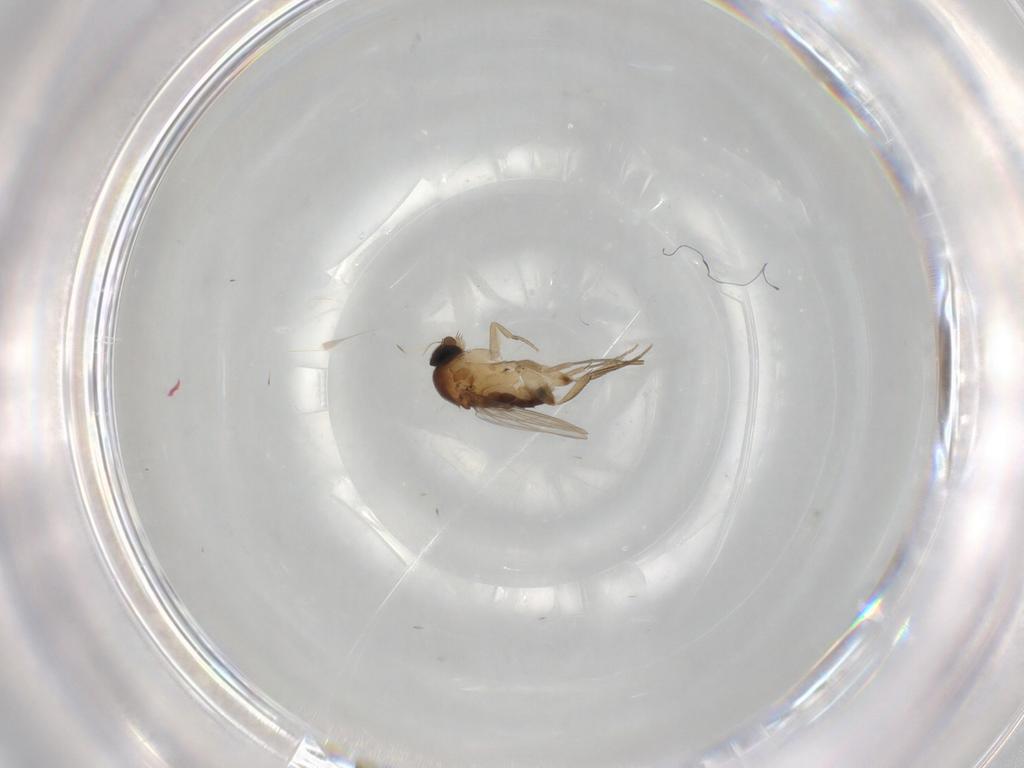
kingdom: Animalia
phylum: Arthropoda
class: Insecta
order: Diptera
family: Phoridae
